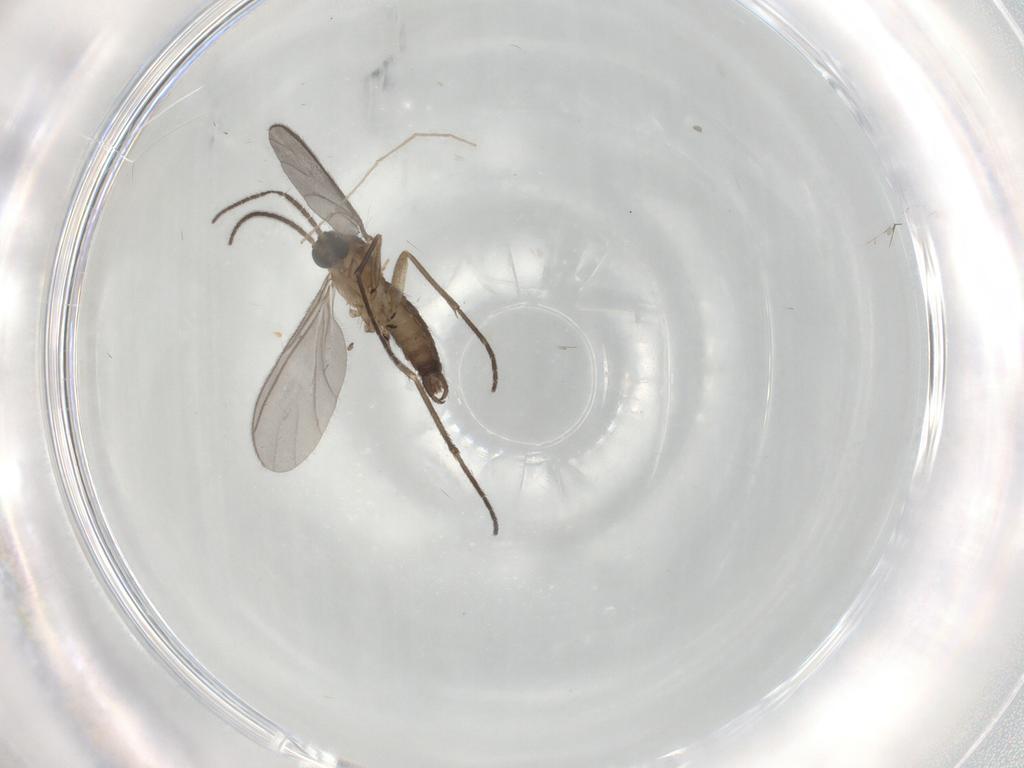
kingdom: Animalia
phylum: Arthropoda
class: Insecta
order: Diptera
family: Sciaridae
